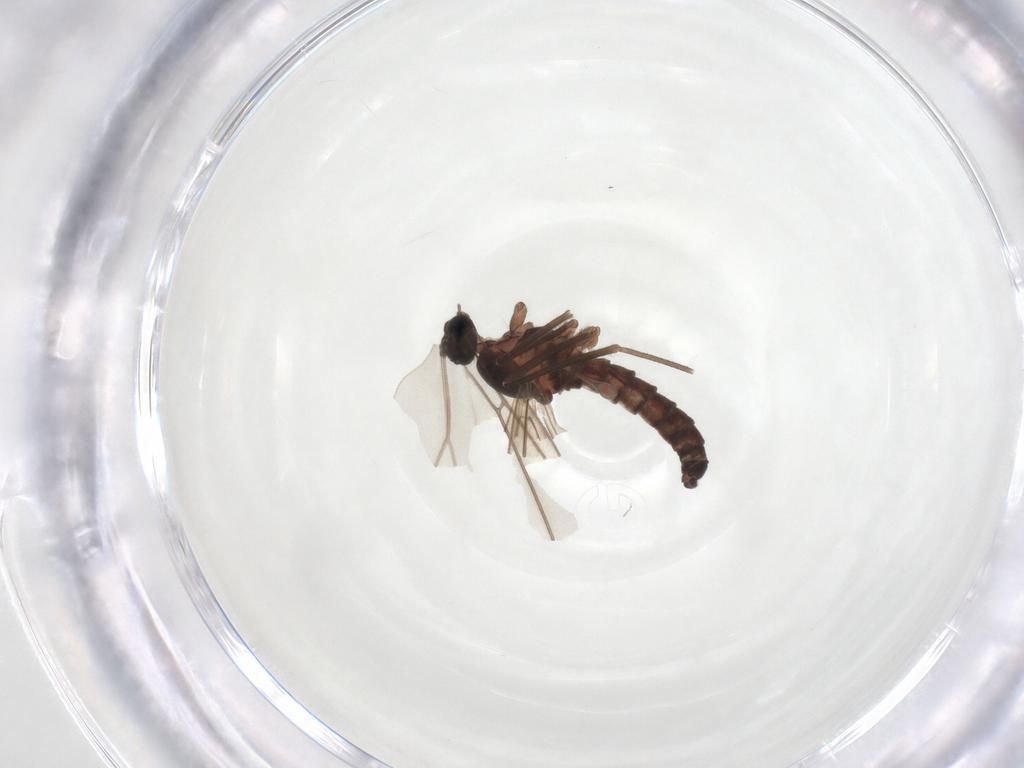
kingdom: Animalia
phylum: Arthropoda
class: Insecta
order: Diptera
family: Cecidomyiidae
